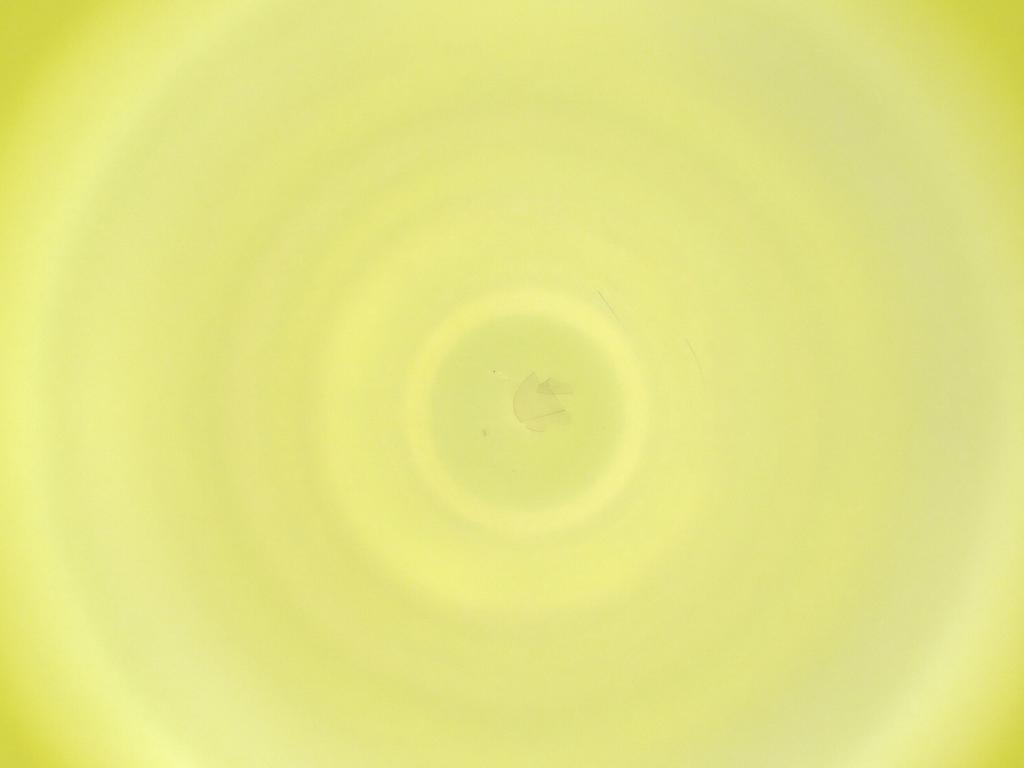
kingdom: Animalia
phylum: Arthropoda
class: Insecta
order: Diptera
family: Cecidomyiidae
